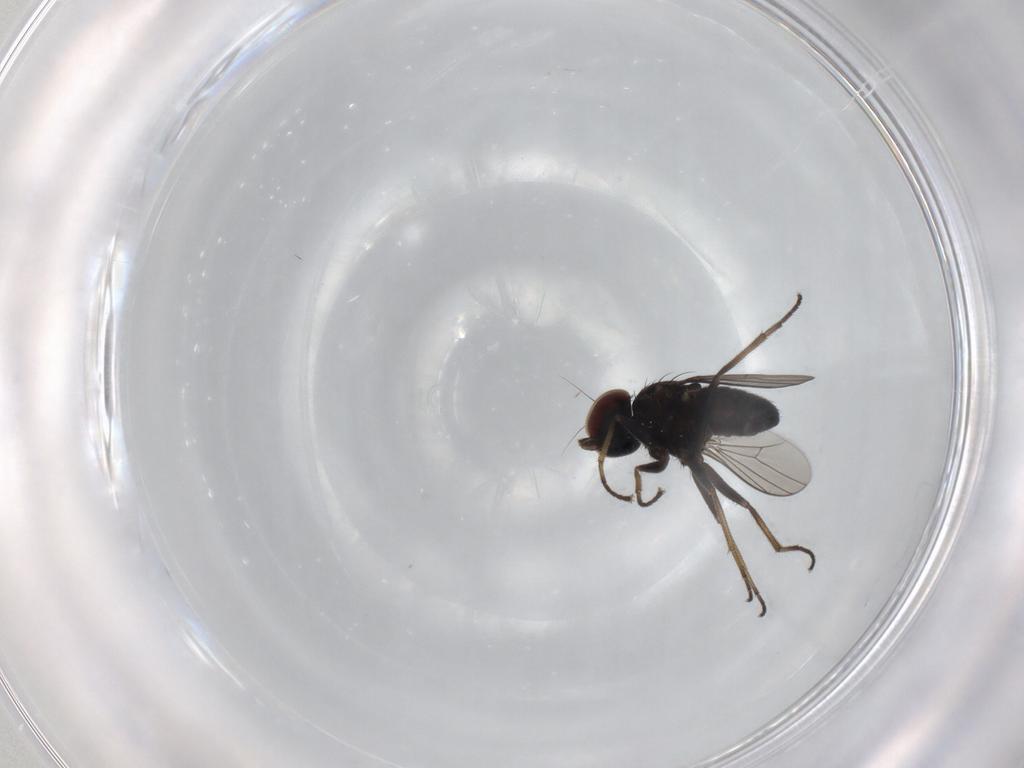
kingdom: Animalia
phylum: Arthropoda
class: Insecta
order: Diptera
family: Dolichopodidae
